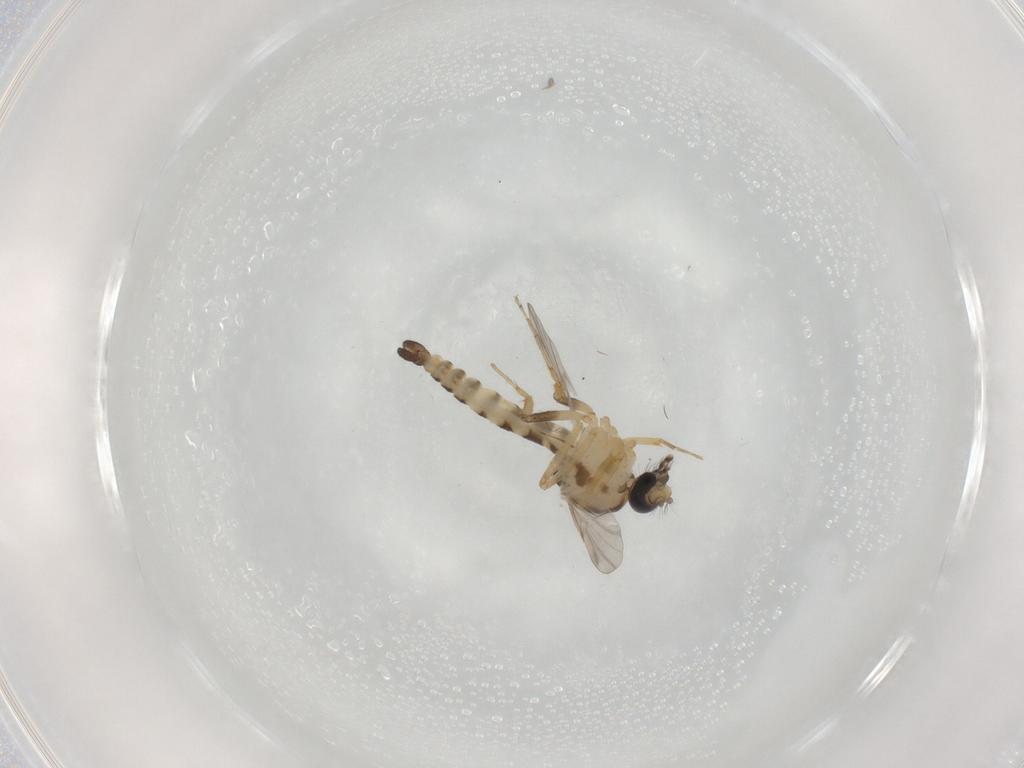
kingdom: Animalia
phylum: Arthropoda
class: Insecta
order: Diptera
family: Ceratopogonidae
